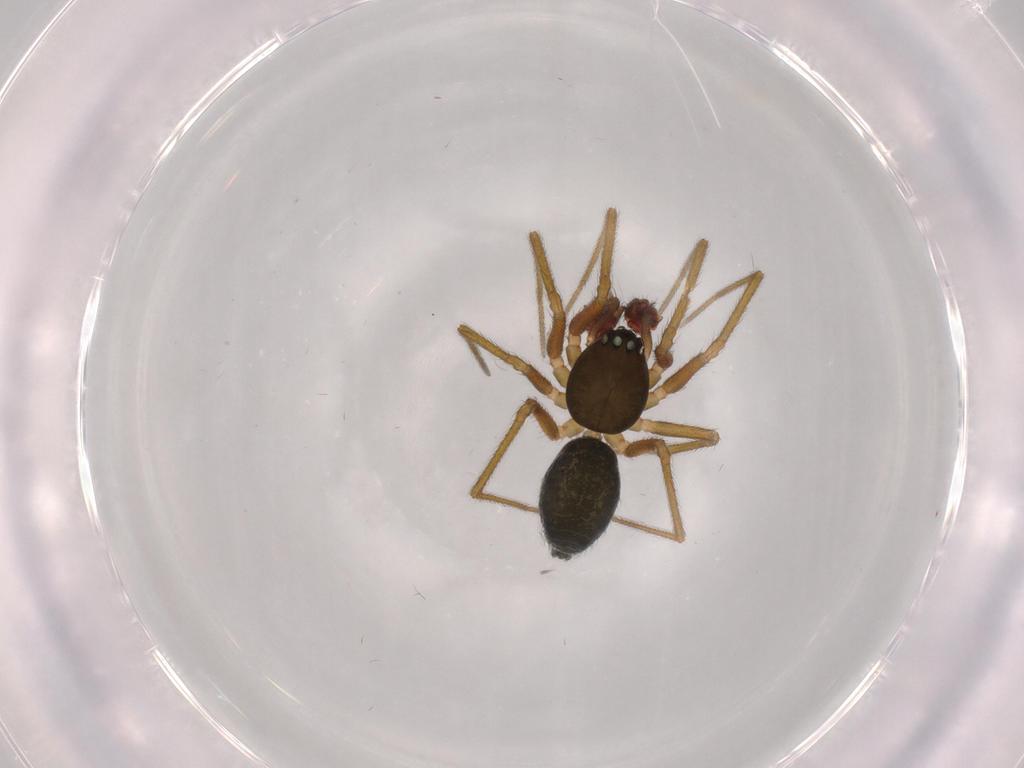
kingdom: Animalia
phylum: Arthropoda
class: Arachnida
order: Araneae
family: Linyphiidae
